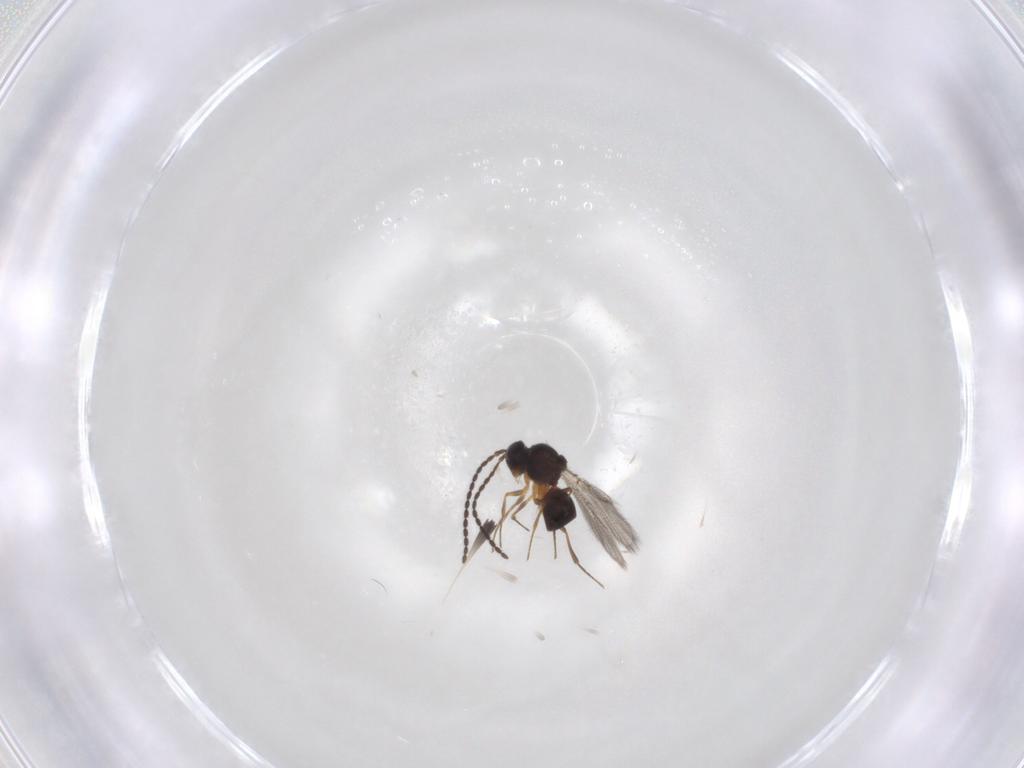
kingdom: Animalia
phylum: Arthropoda
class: Insecta
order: Hymenoptera
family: Figitidae
